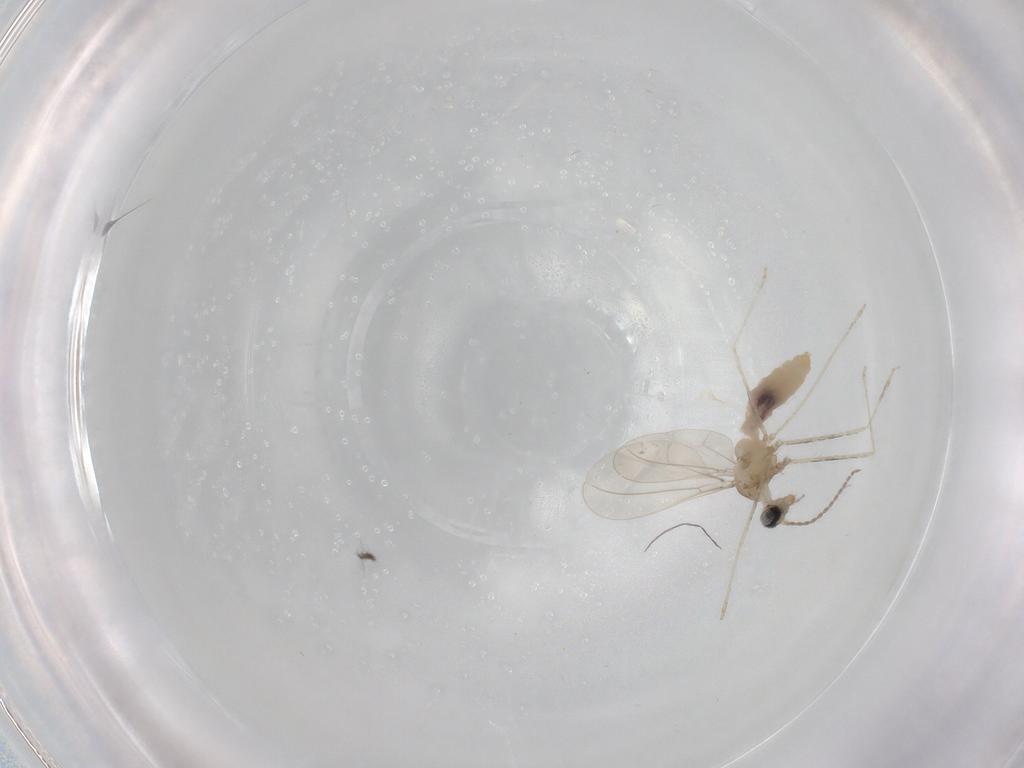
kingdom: Animalia
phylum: Arthropoda
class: Insecta
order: Diptera
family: Cecidomyiidae
